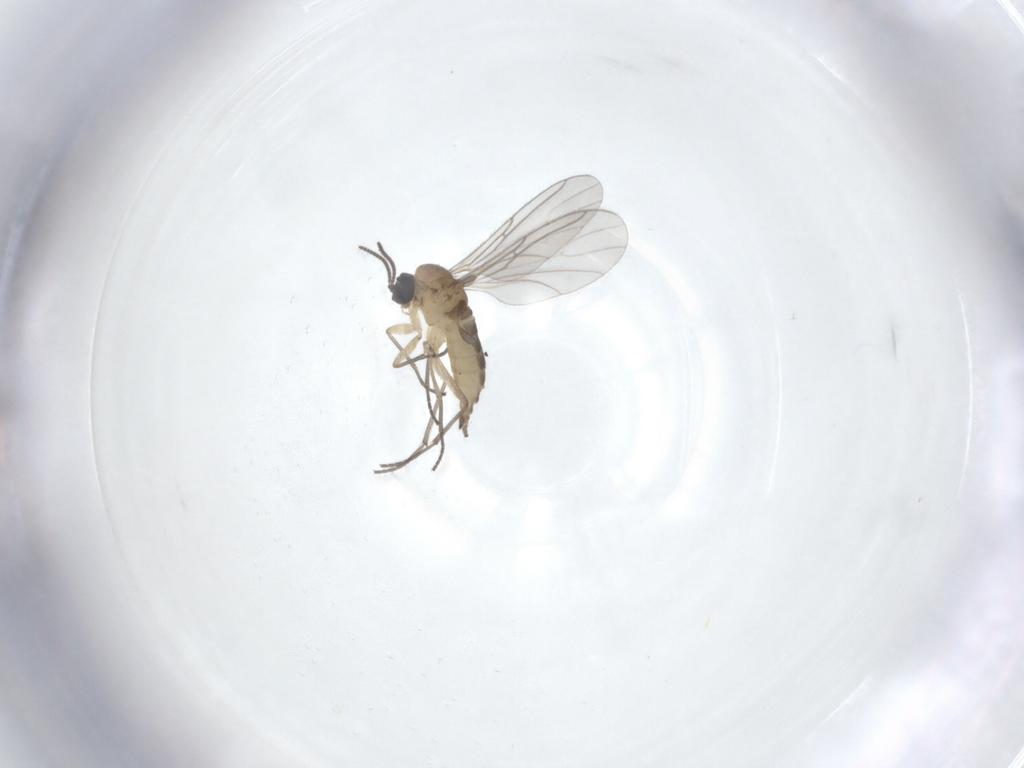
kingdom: Animalia
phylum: Arthropoda
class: Insecta
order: Diptera
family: Sciaridae
